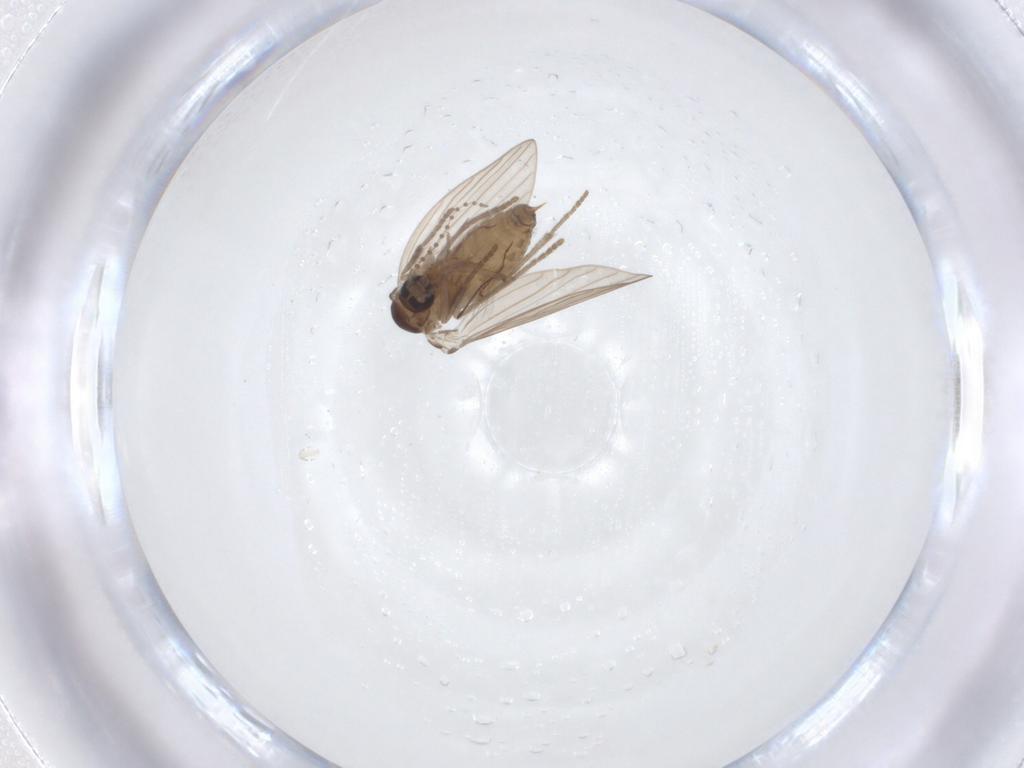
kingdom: Animalia
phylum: Arthropoda
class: Insecta
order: Diptera
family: Psychodidae
